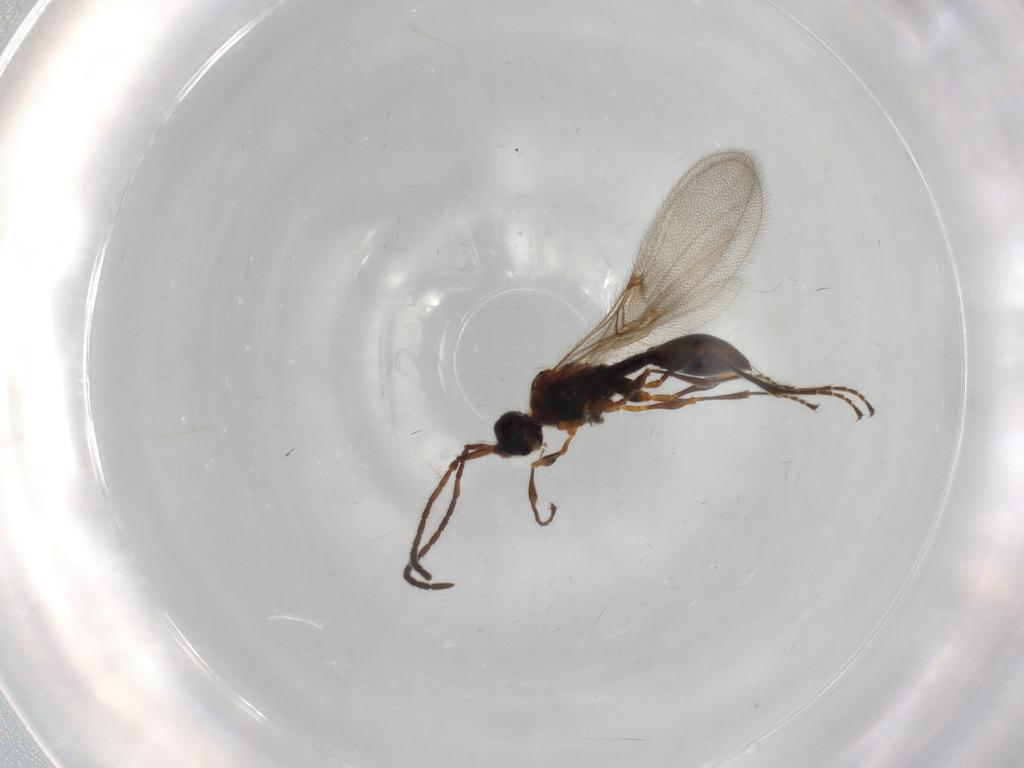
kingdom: Animalia
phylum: Arthropoda
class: Insecta
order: Hymenoptera
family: Diapriidae
